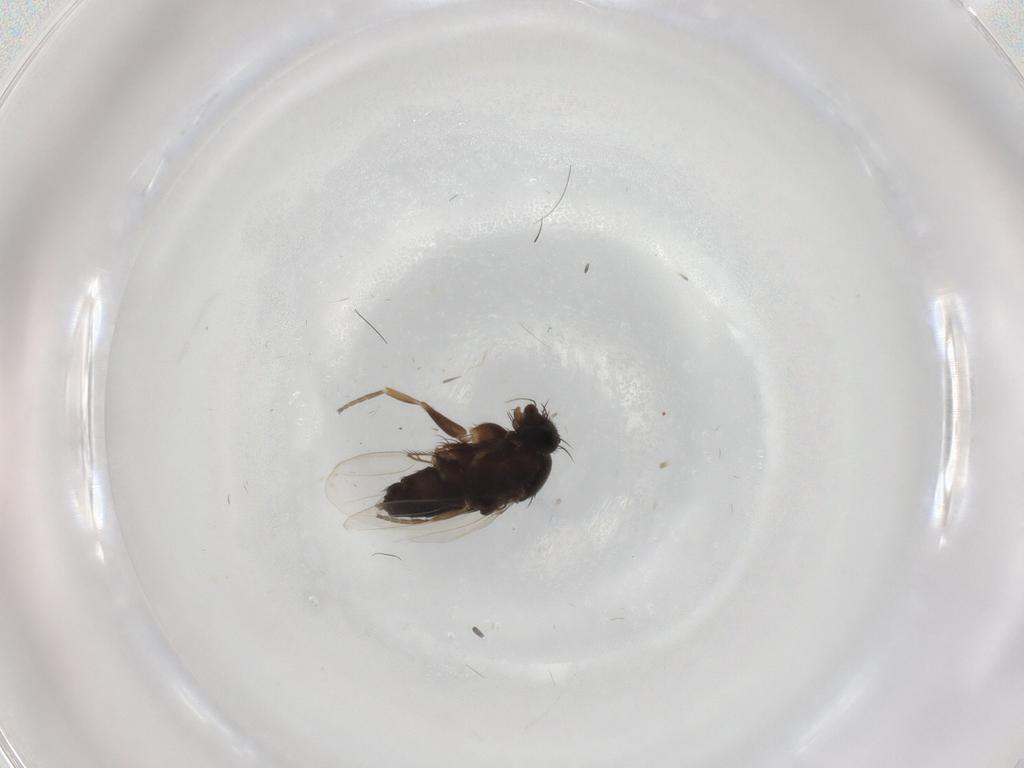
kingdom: Animalia
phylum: Arthropoda
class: Insecta
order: Diptera
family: Phoridae
